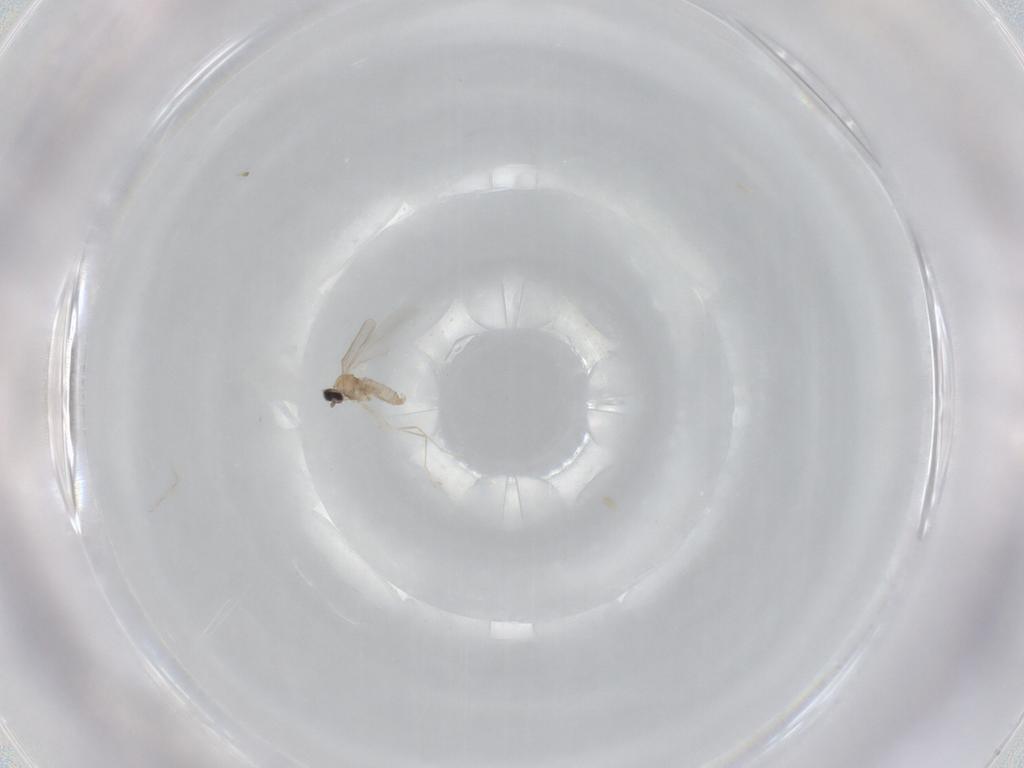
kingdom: Animalia
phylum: Arthropoda
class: Insecta
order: Diptera
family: Cecidomyiidae
